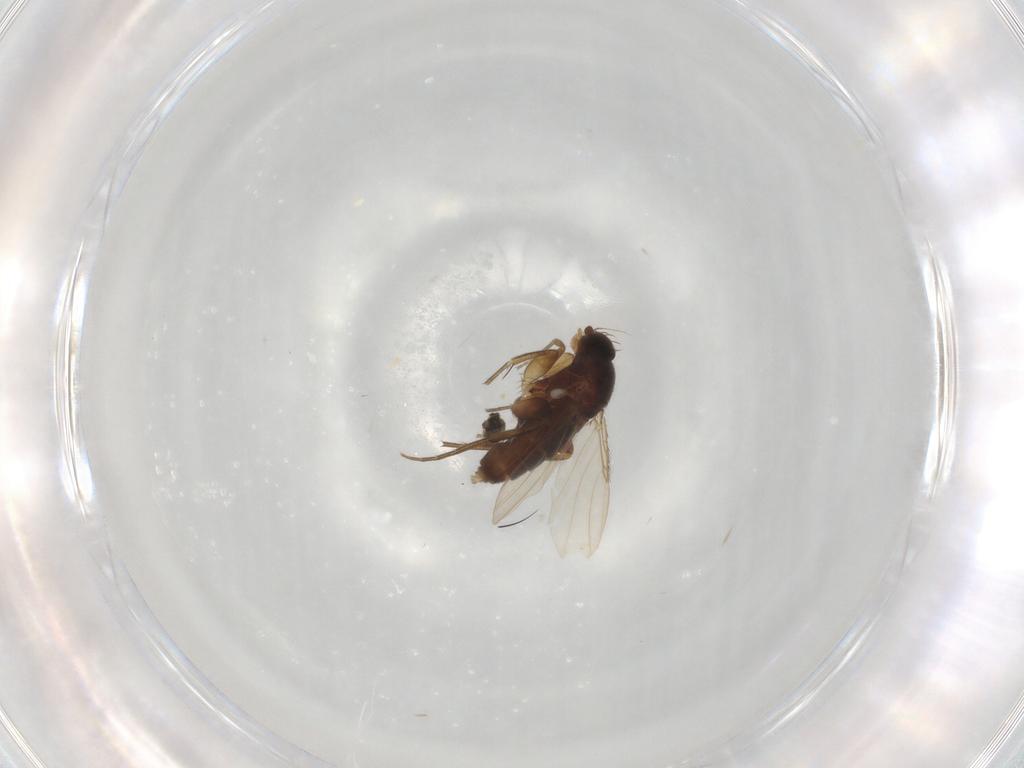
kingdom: Animalia
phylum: Arthropoda
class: Insecta
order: Diptera
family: Phoridae
